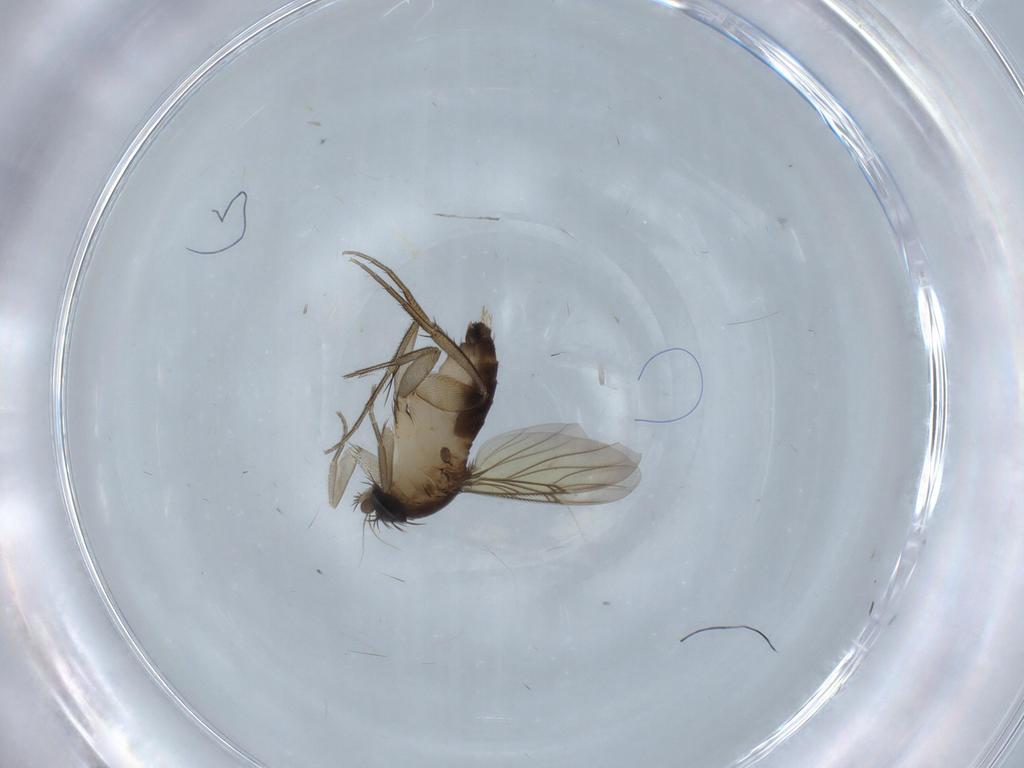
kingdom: Animalia
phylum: Arthropoda
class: Insecta
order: Diptera
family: Phoridae
